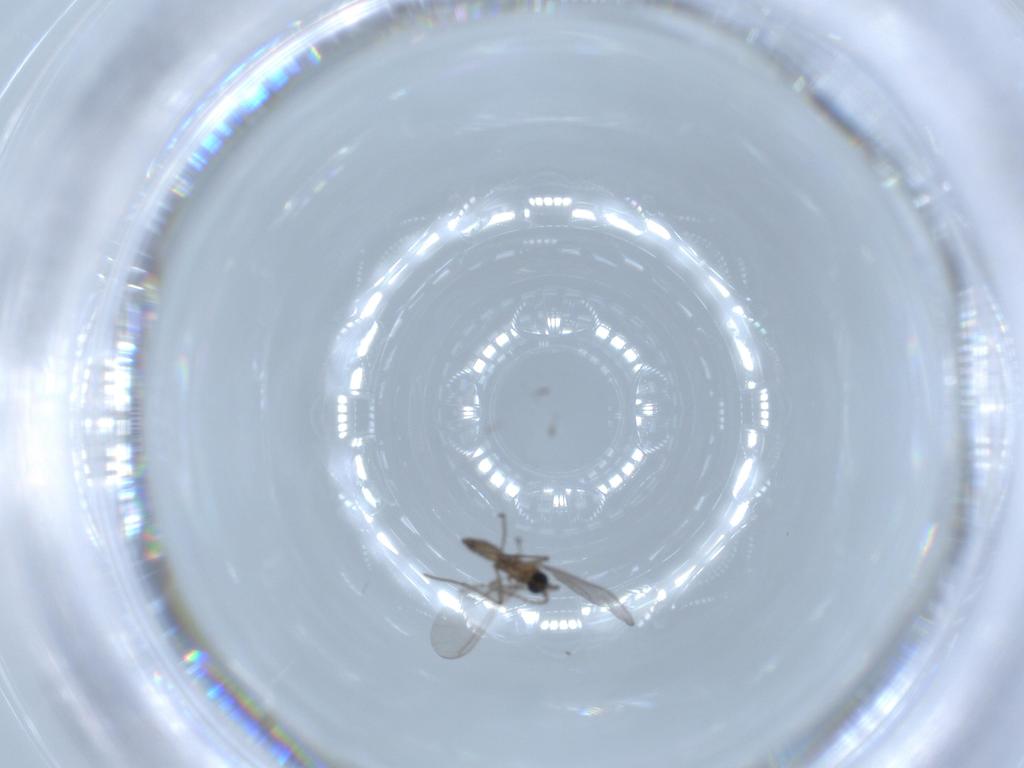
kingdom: Animalia
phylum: Arthropoda
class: Insecta
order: Diptera
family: Sciaridae
